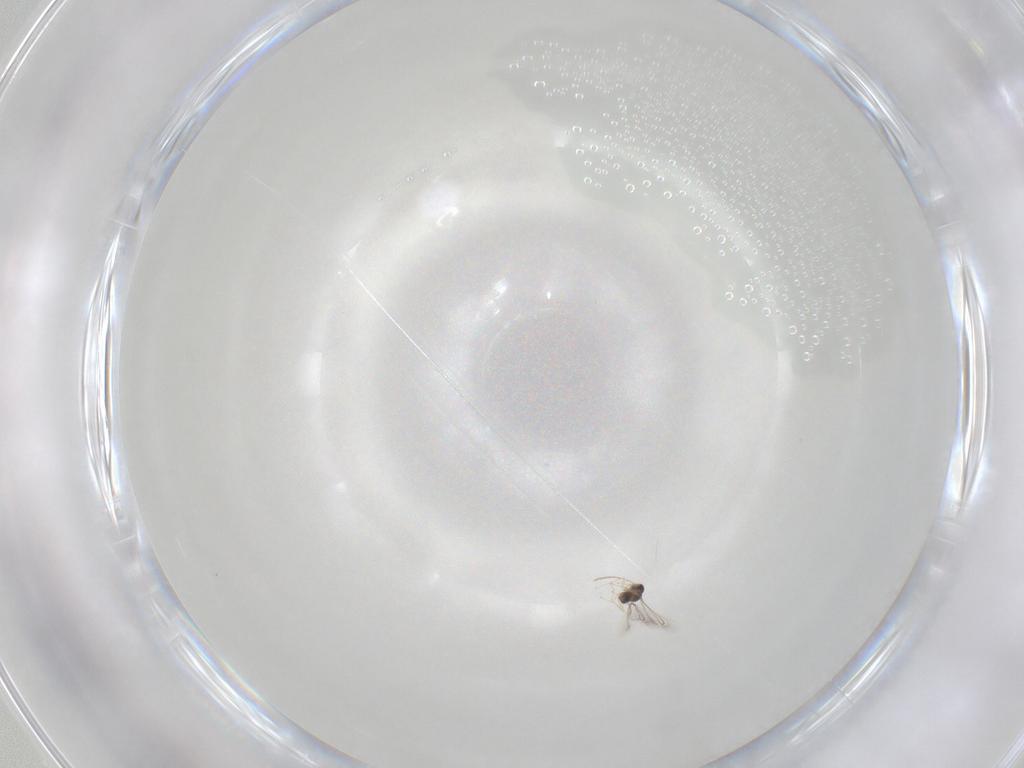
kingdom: Animalia
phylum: Arthropoda
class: Insecta
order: Hymenoptera
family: Mymaridae
